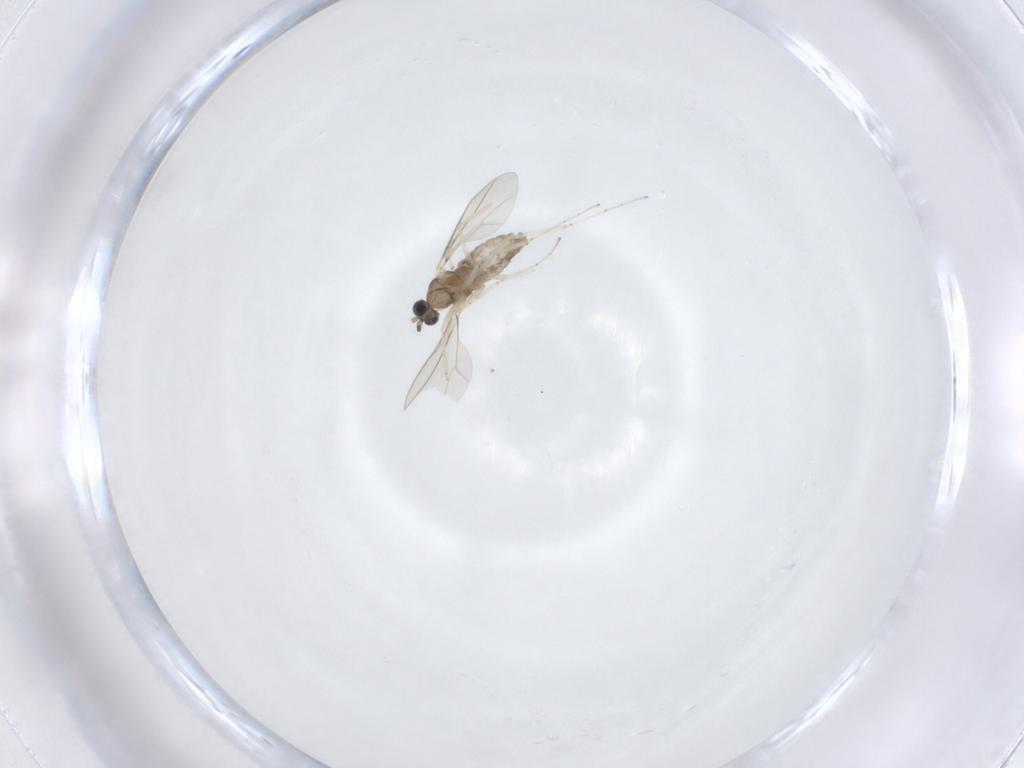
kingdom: Animalia
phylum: Arthropoda
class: Insecta
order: Diptera
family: Cecidomyiidae
